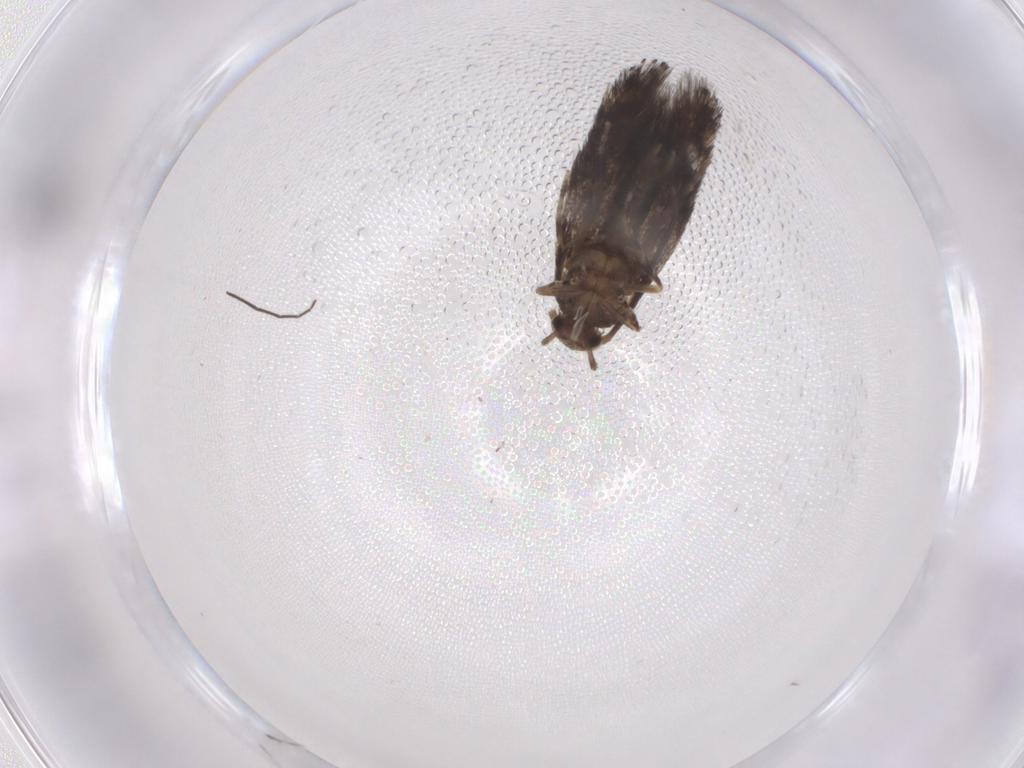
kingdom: Animalia
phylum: Arthropoda
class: Insecta
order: Lepidoptera
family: Elachistidae
